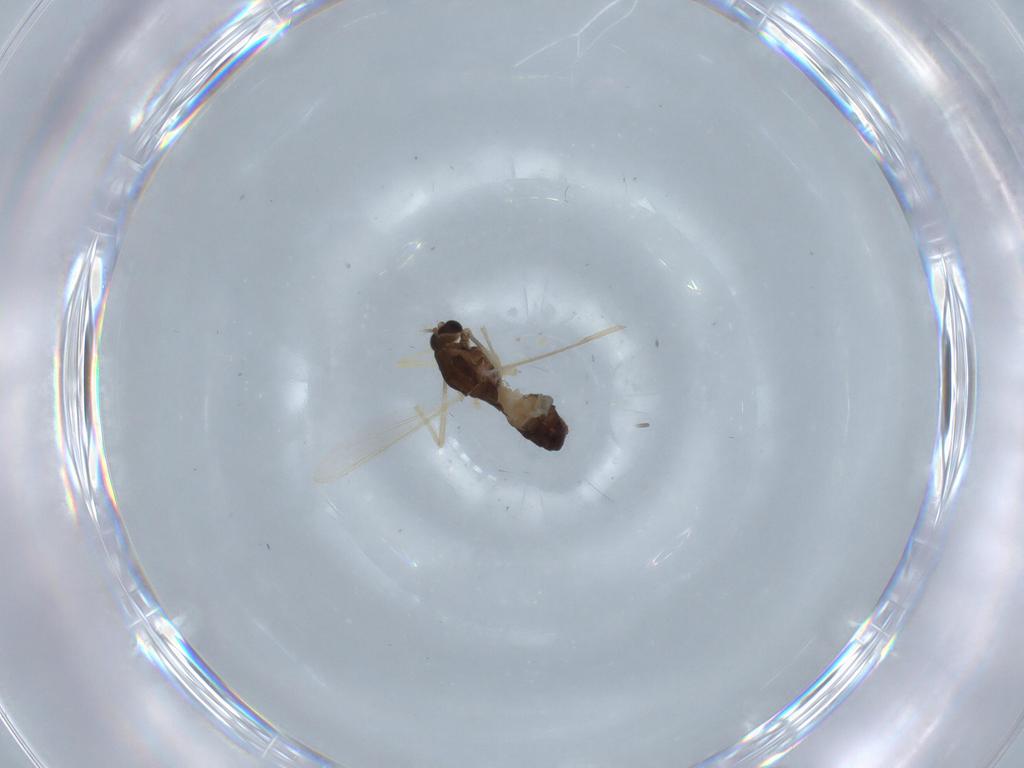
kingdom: Animalia
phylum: Arthropoda
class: Insecta
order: Diptera
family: Chironomidae
